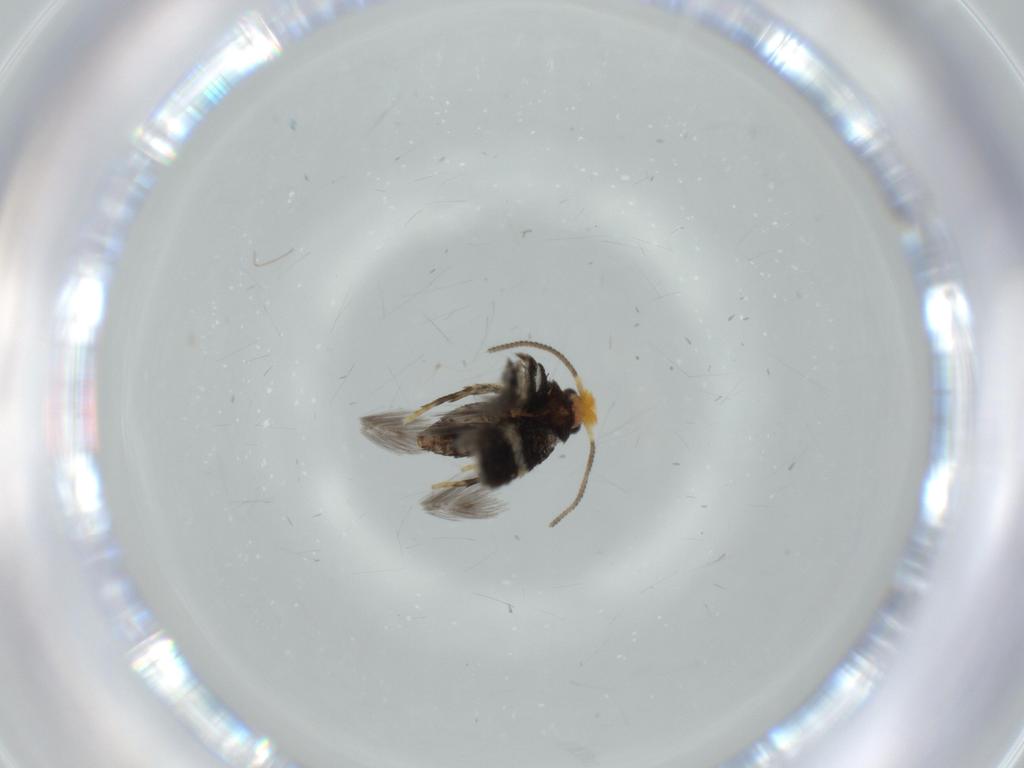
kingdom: Animalia
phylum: Arthropoda
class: Insecta
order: Lepidoptera
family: Nepticulidae
